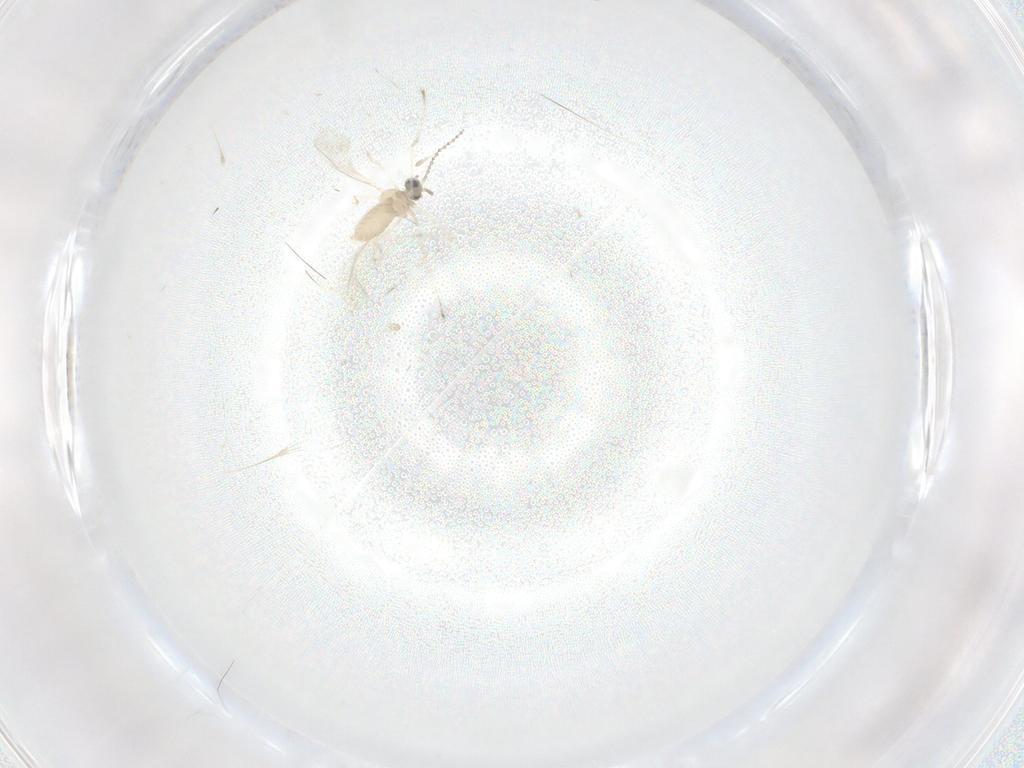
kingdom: Animalia
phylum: Arthropoda
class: Insecta
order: Diptera
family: Cecidomyiidae
